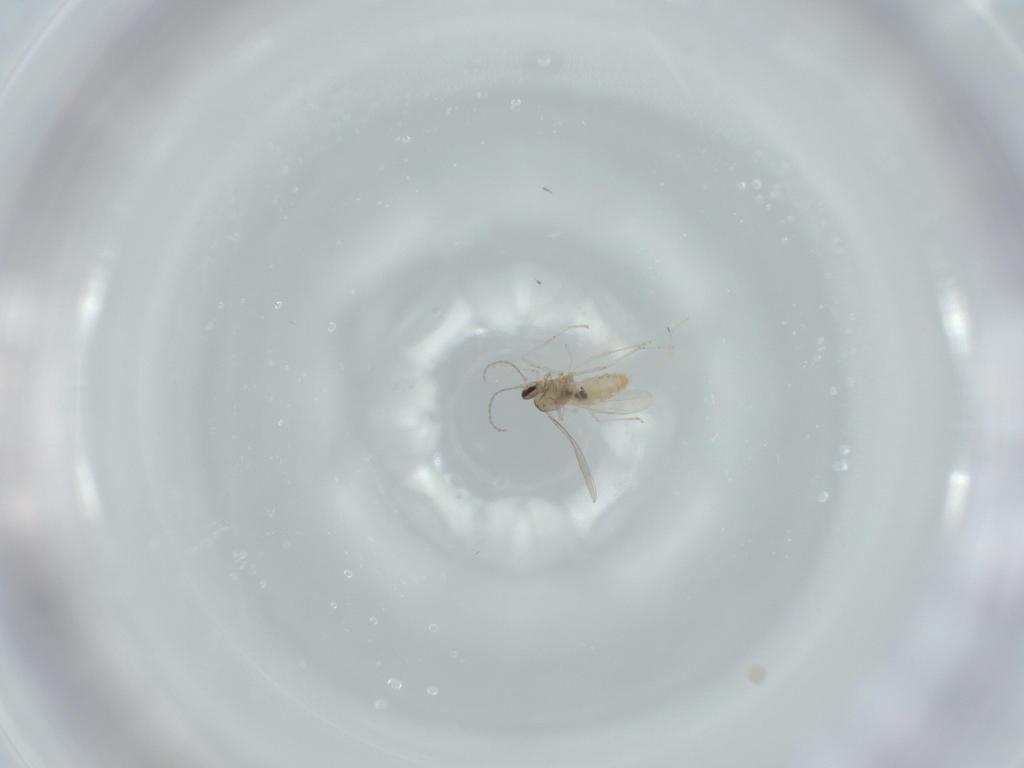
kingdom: Animalia
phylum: Arthropoda
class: Insecta
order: Diptera
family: Cecidomyiidae
